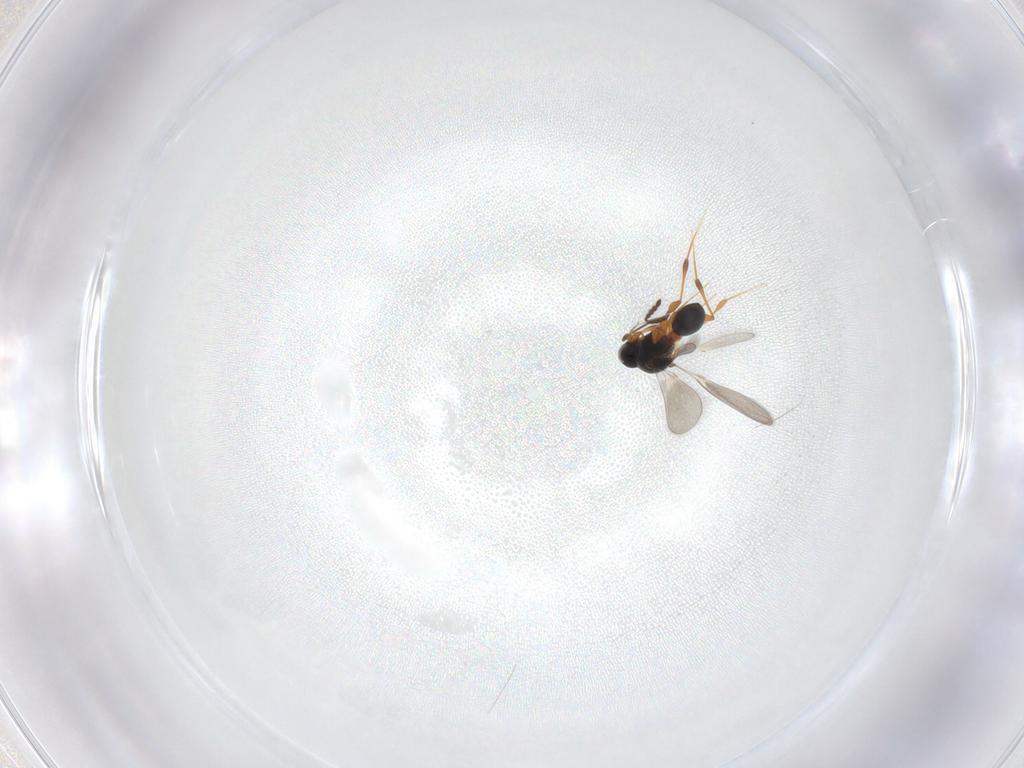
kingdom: Animalia
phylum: Arthropoda
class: Insecta
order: Hymenoptera
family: Platygastridae
